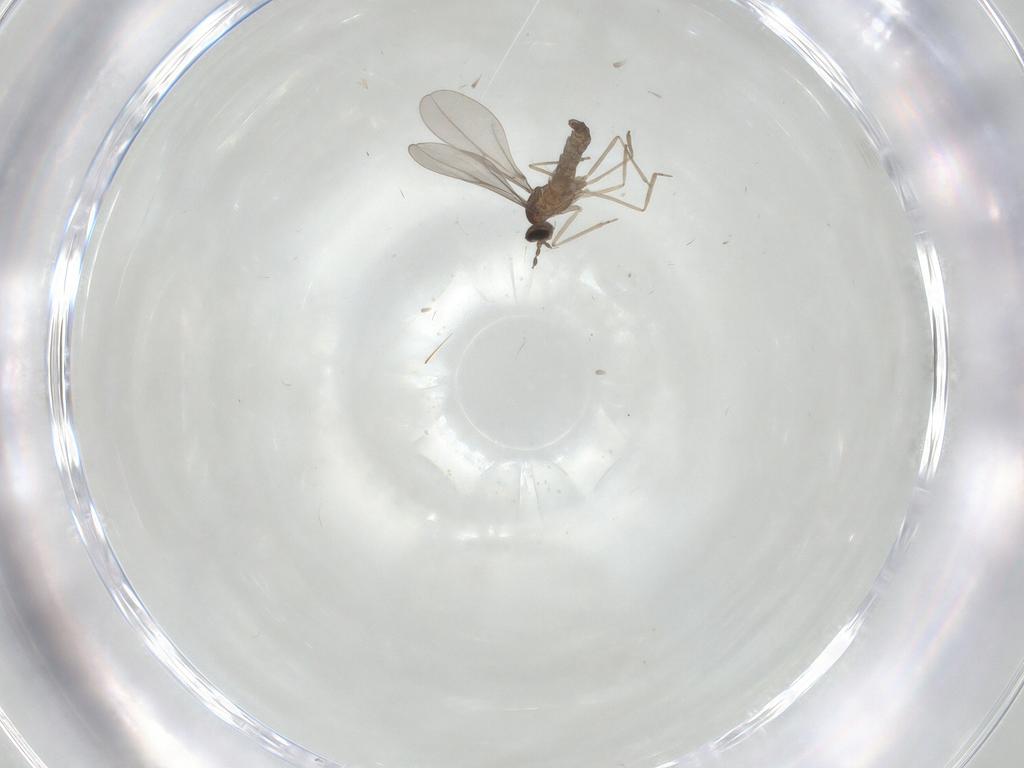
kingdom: Animalia
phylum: Arthropoda
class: Insecta
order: Diptera
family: Cecidomyiidae
